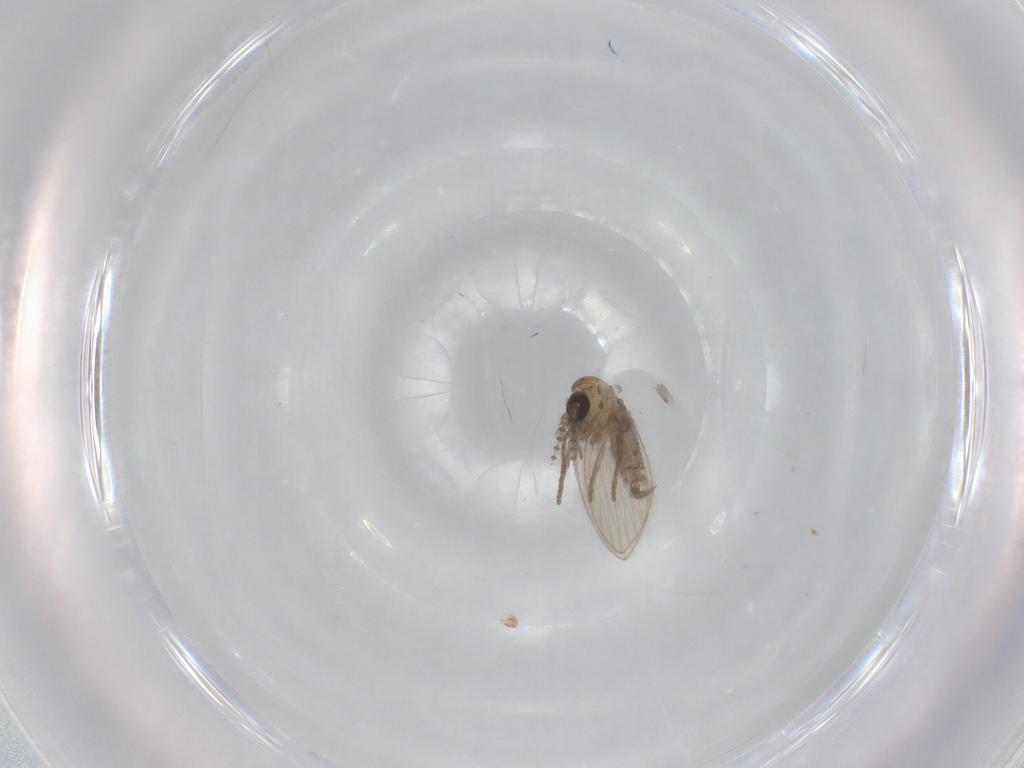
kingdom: Animalia
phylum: Arthropoda
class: Insecta
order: Diptera
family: Psychodidae
